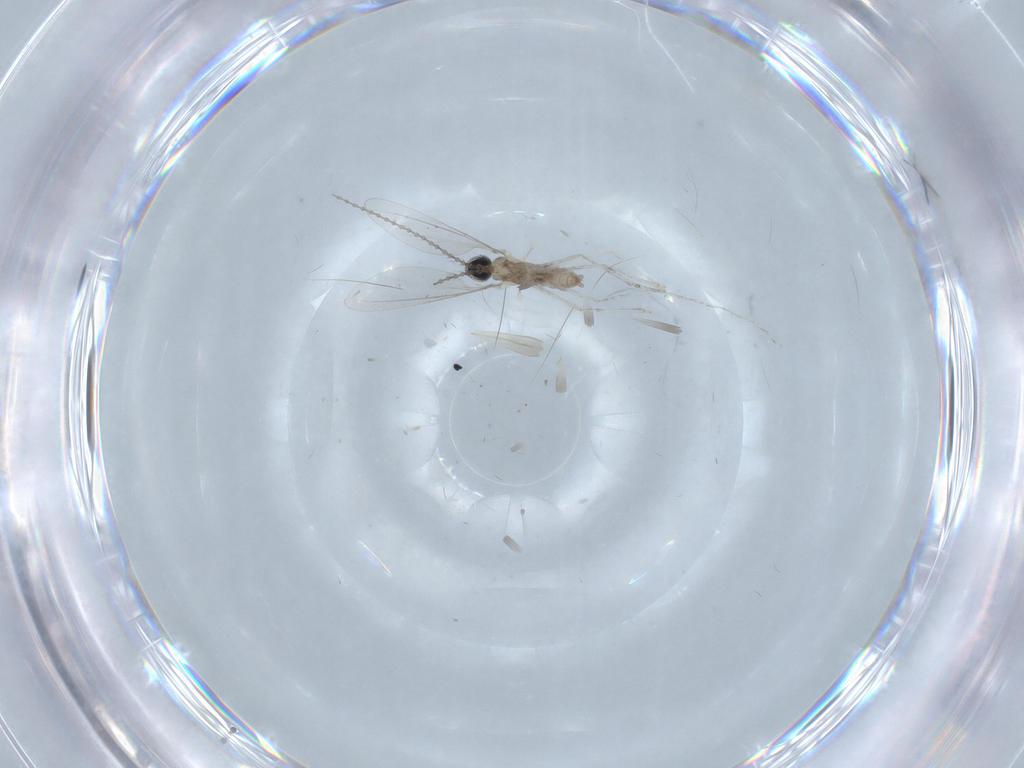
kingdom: Animalia
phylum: Arthropoda
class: Insecta
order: Diptera
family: Cecidomyiidae
